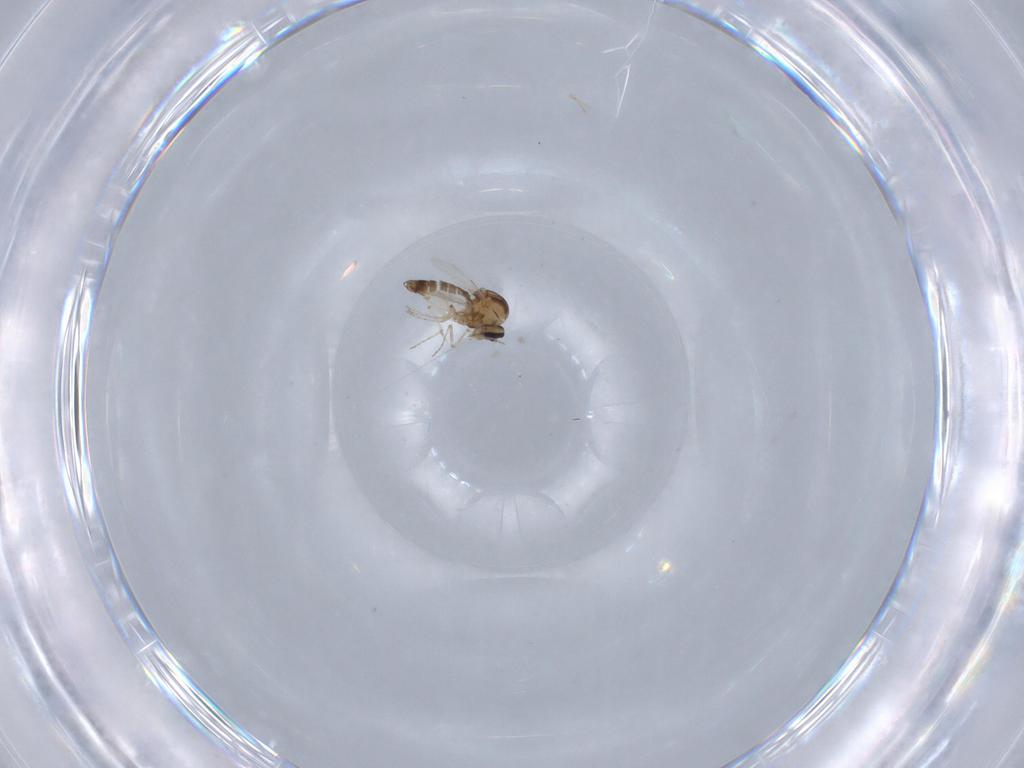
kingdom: Animalia
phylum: Arthropoda
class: Insecta
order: Diptera
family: Ceratopogonidae
